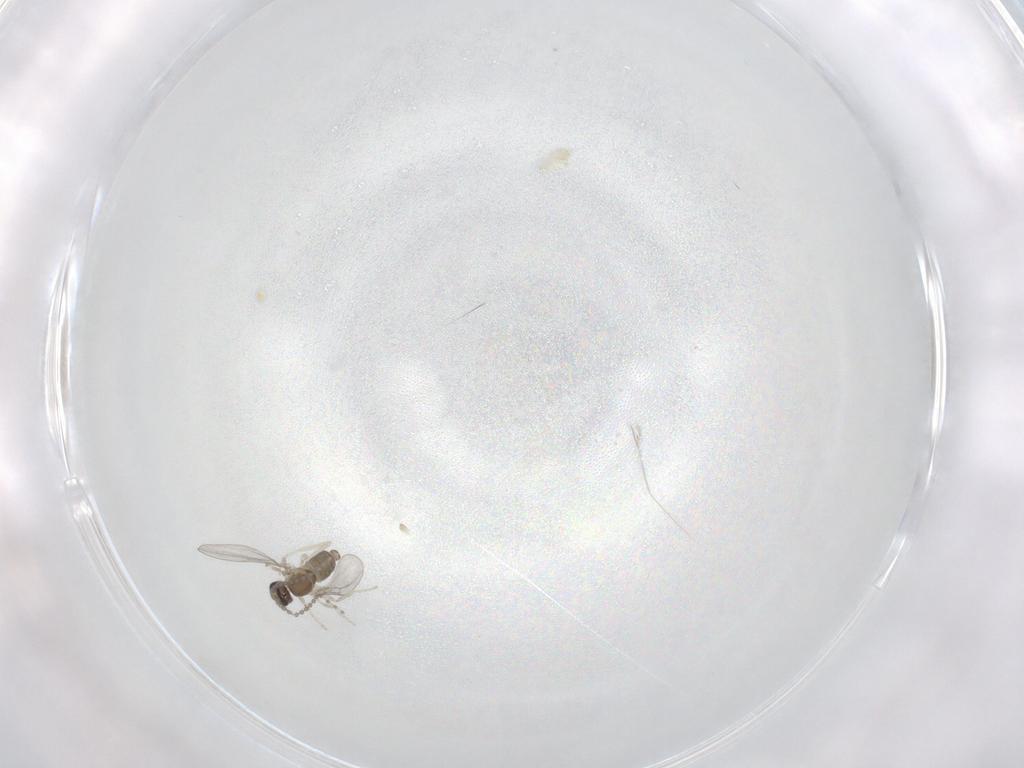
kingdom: Animalia
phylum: Arthropoda
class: Insecta
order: Diptera
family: Cecidomyiidae
